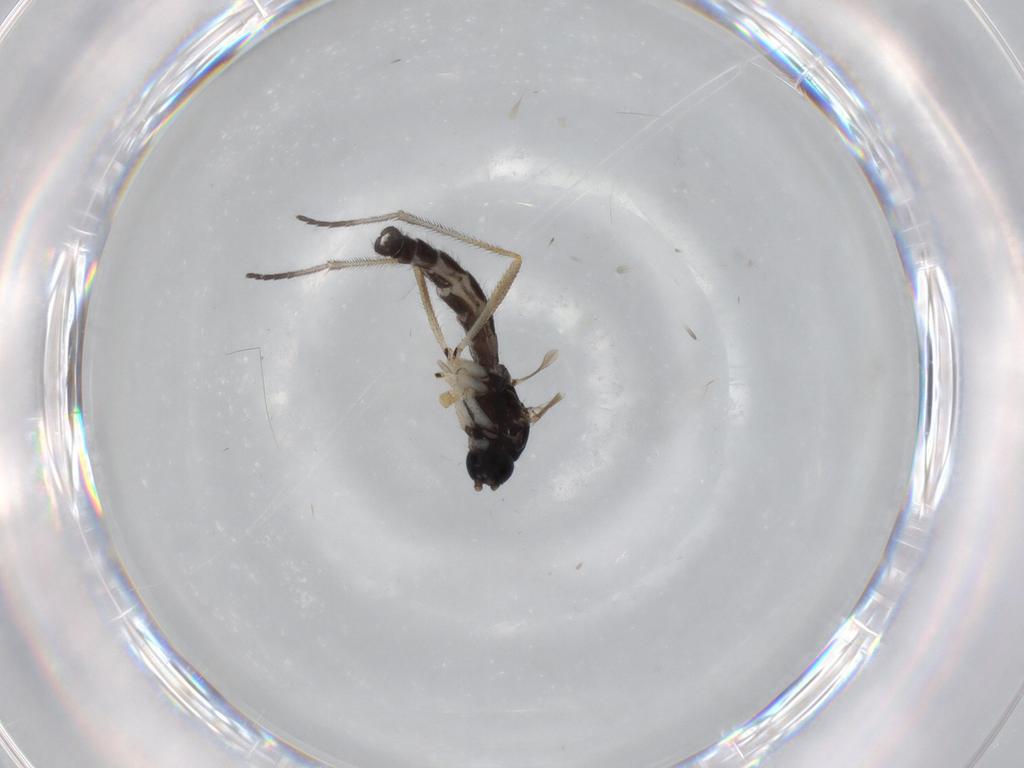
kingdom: Animalia
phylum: Arthropoda
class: Insecta
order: Diptera
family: Sciaridae
